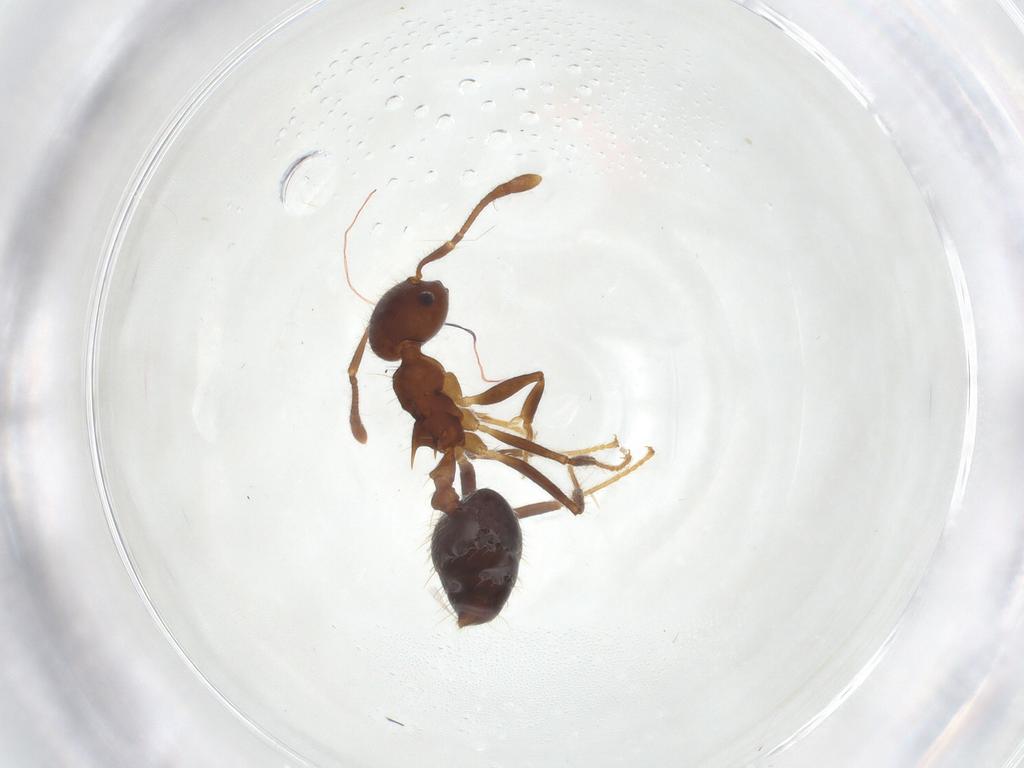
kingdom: Animalia
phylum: Arthropoda
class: Insecta
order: Hymenoptera
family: Formicidae
